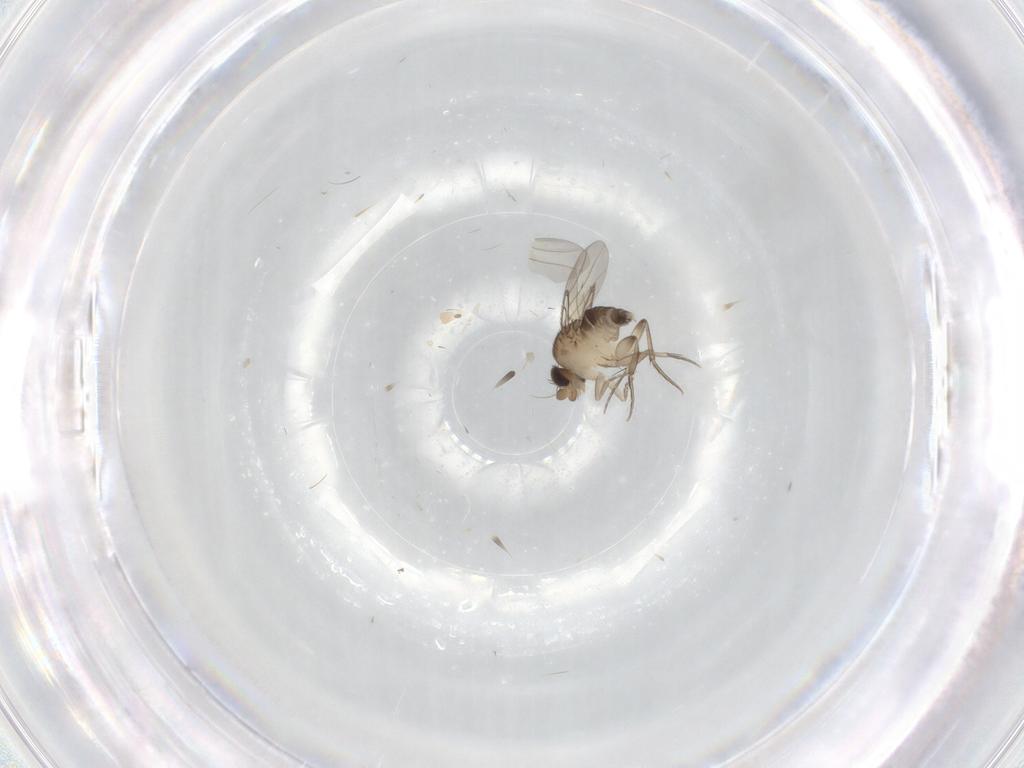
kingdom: Animalia
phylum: Arthropoda
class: Insecta
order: Diptera
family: Phoridae
